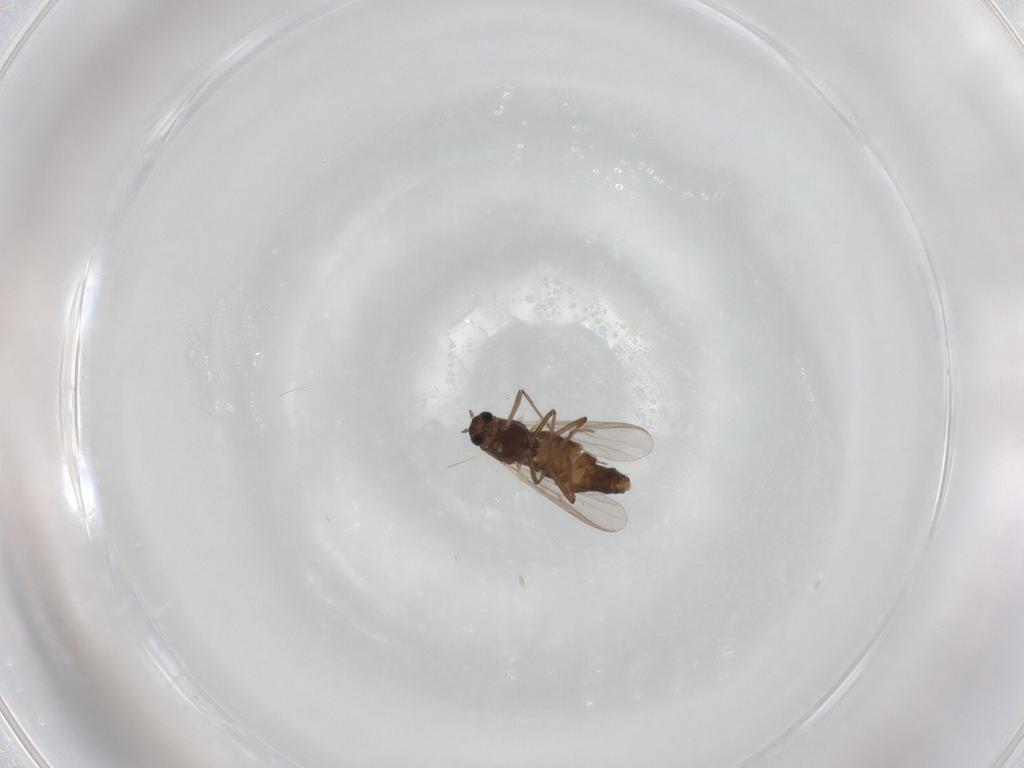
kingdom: Animalia
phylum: Arthropoda
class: Insecta
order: Diptera
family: Chironomidae
